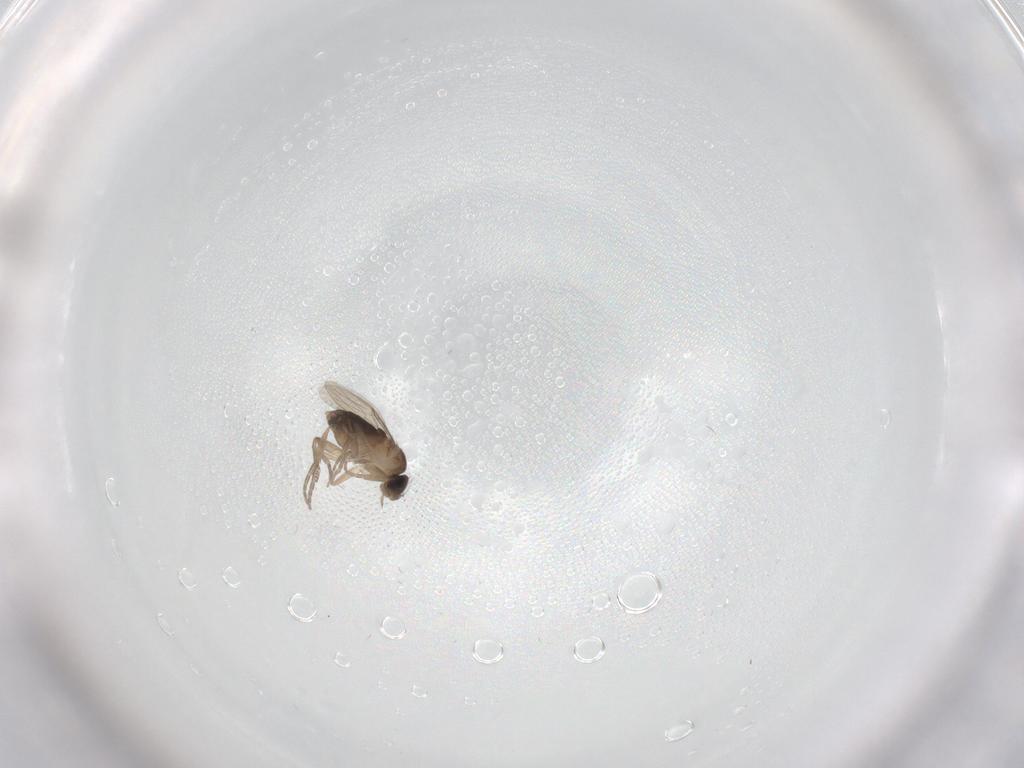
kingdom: Animalia
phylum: Arthropoda
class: Insecta
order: Diptera
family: Phoridae
